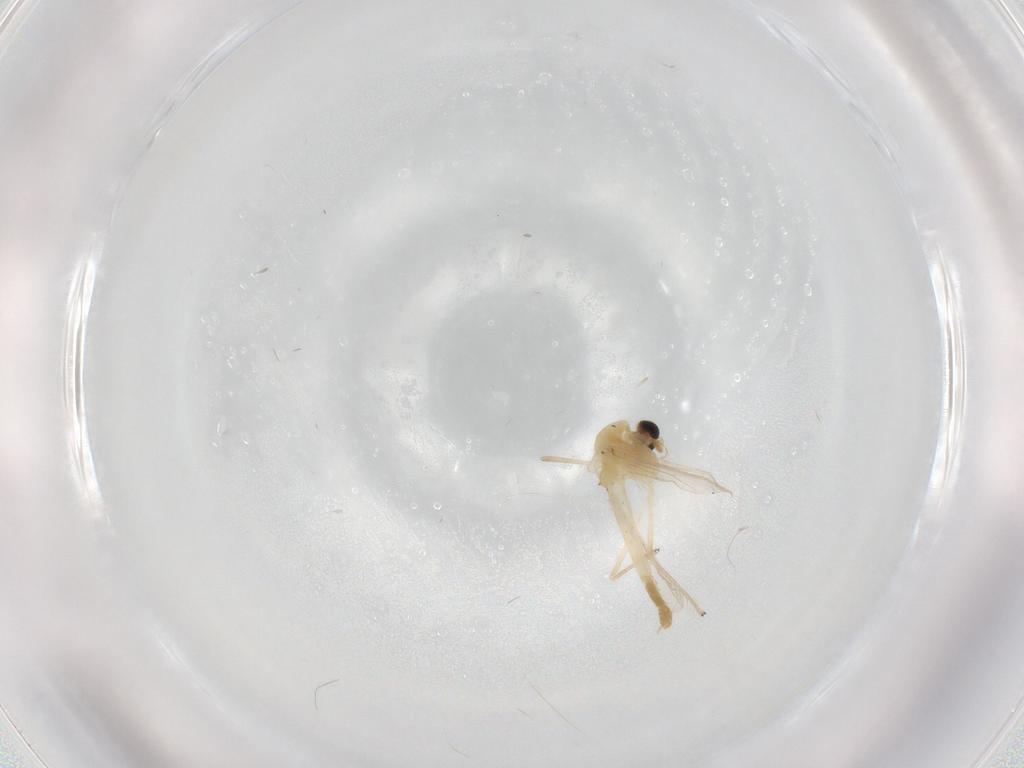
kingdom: Animalia
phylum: Arthropoda
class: Insecta
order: Diptera
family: Chironomidae
